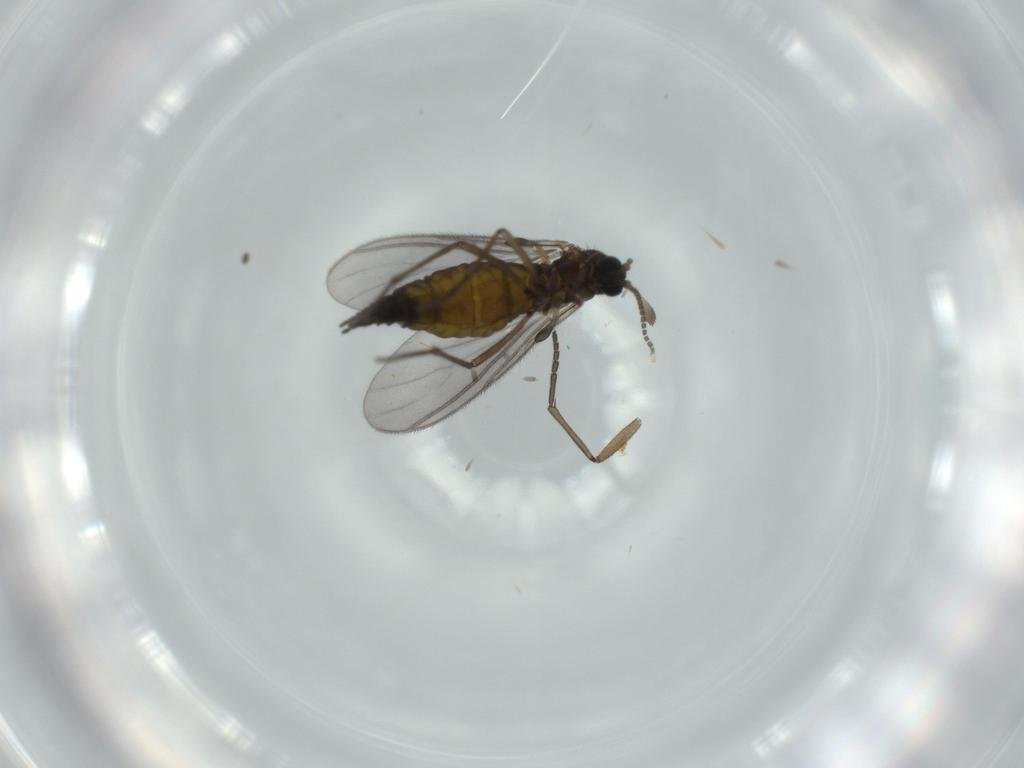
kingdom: Animalia
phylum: Arthropoda
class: Insecta
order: Diptera
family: Sciaridae
